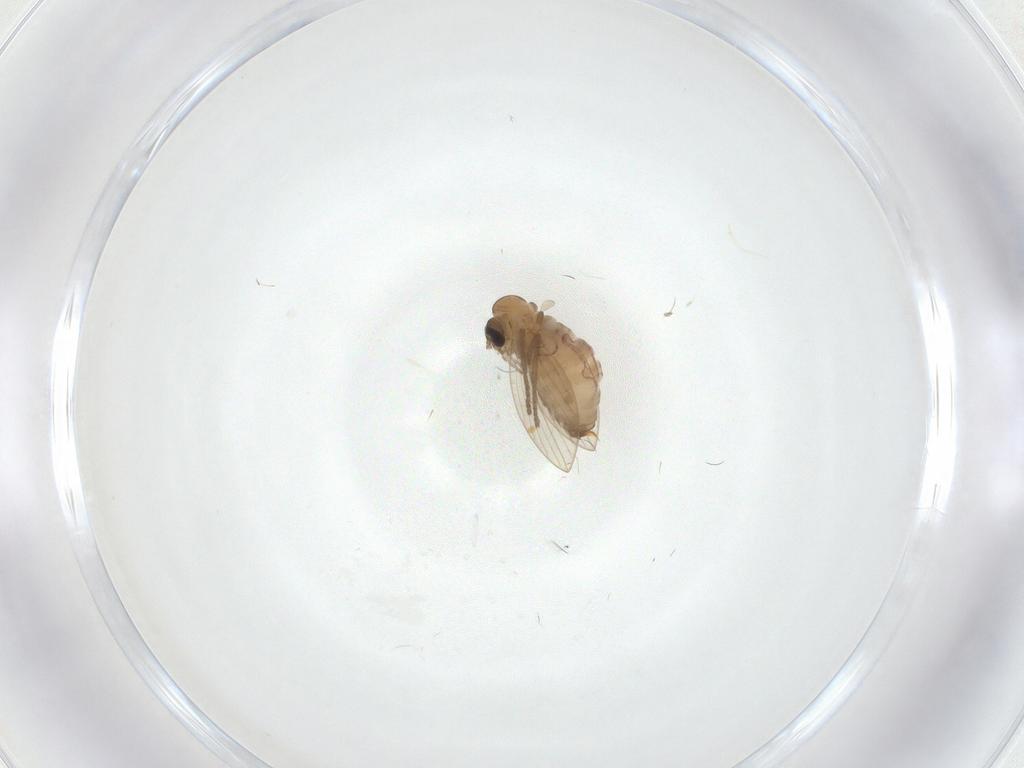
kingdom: Animalia
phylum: Arthropoda
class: Insecta
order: Diptera
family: Psychodidae
